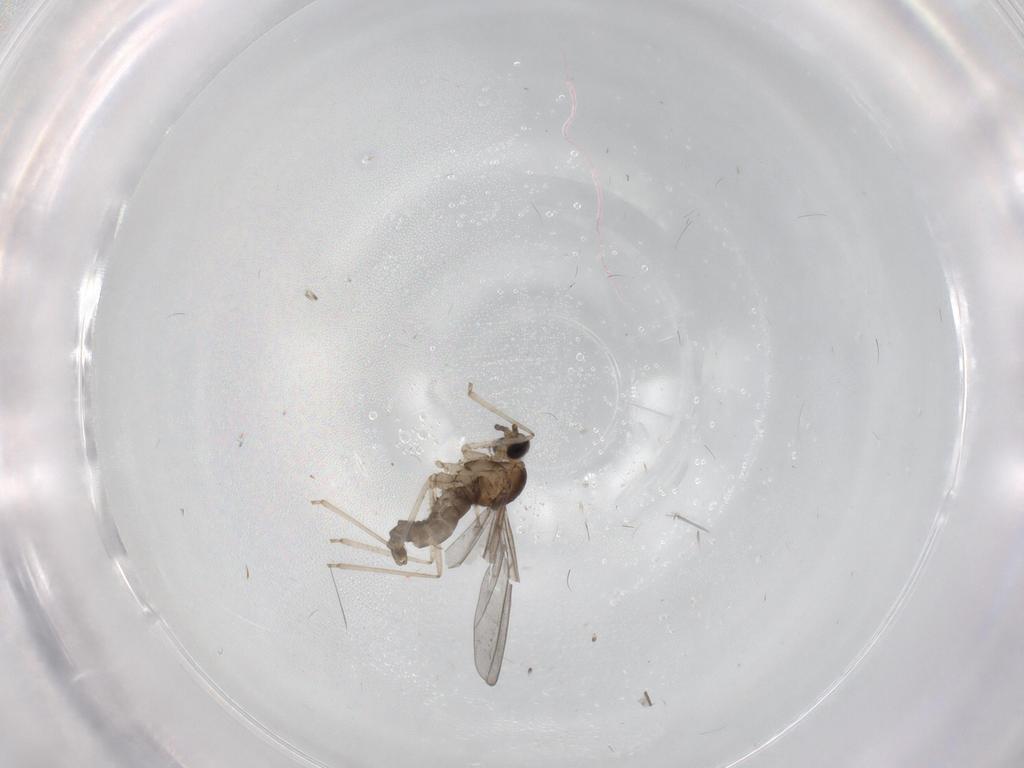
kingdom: Animalia
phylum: Arthropoda
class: Insecta
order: Diptera
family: Cecidomyiidae
